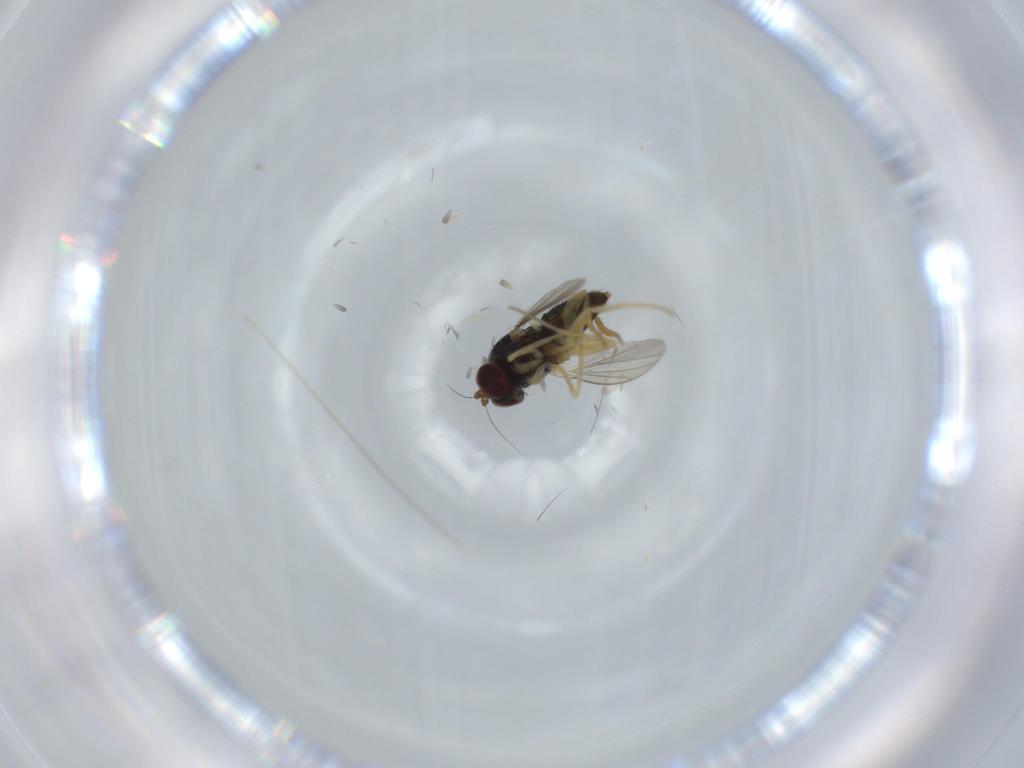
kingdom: Animalia
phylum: Arthropoda
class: Insecta
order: Diptera
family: Dolichopodidae
